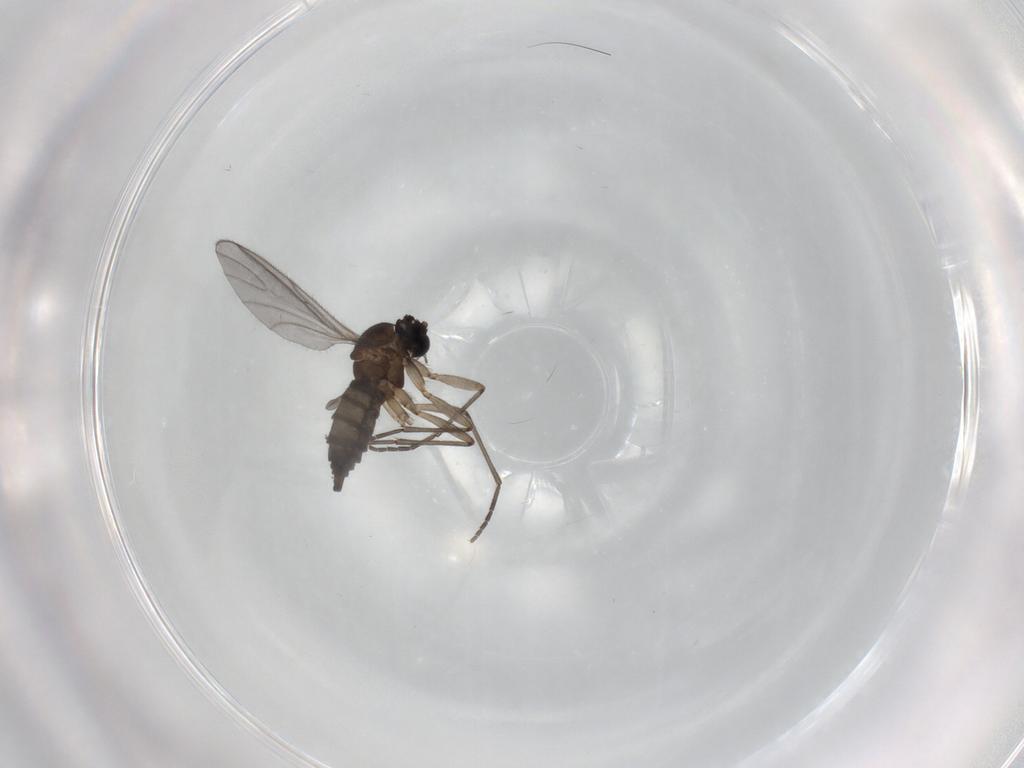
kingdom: Animalia
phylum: Arthropoda
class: Insecta
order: Diptera
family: Sciaridae
